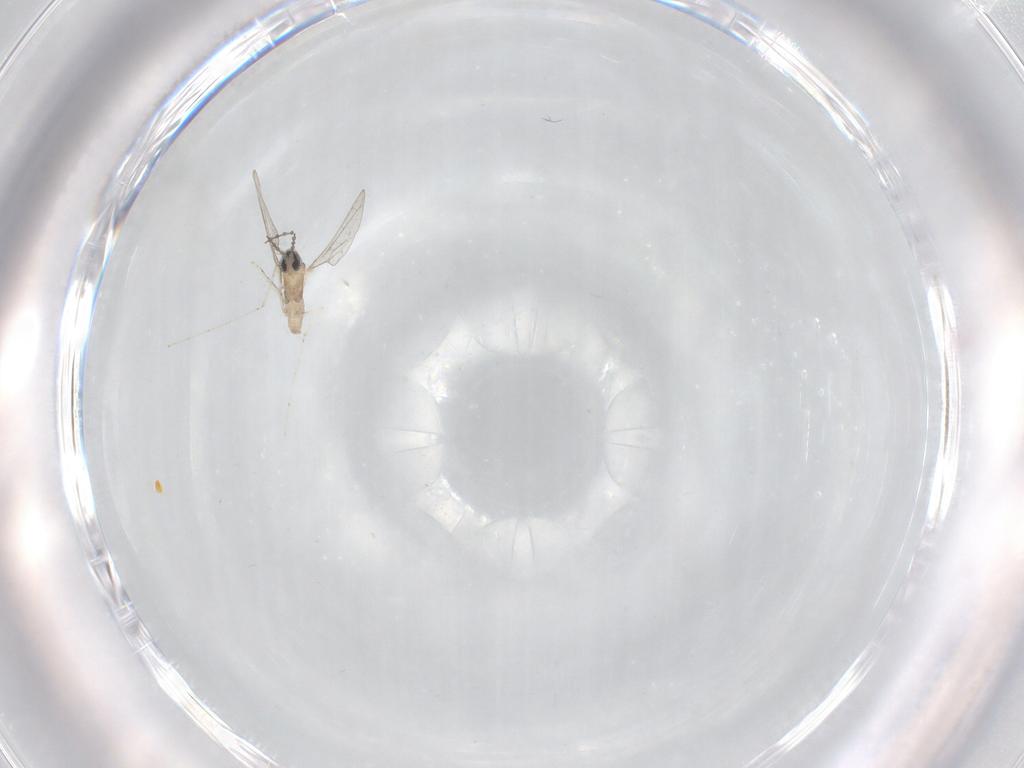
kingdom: Animalia
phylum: Arthropoda
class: Insecta
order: Diptera
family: Cecidomyiidae
